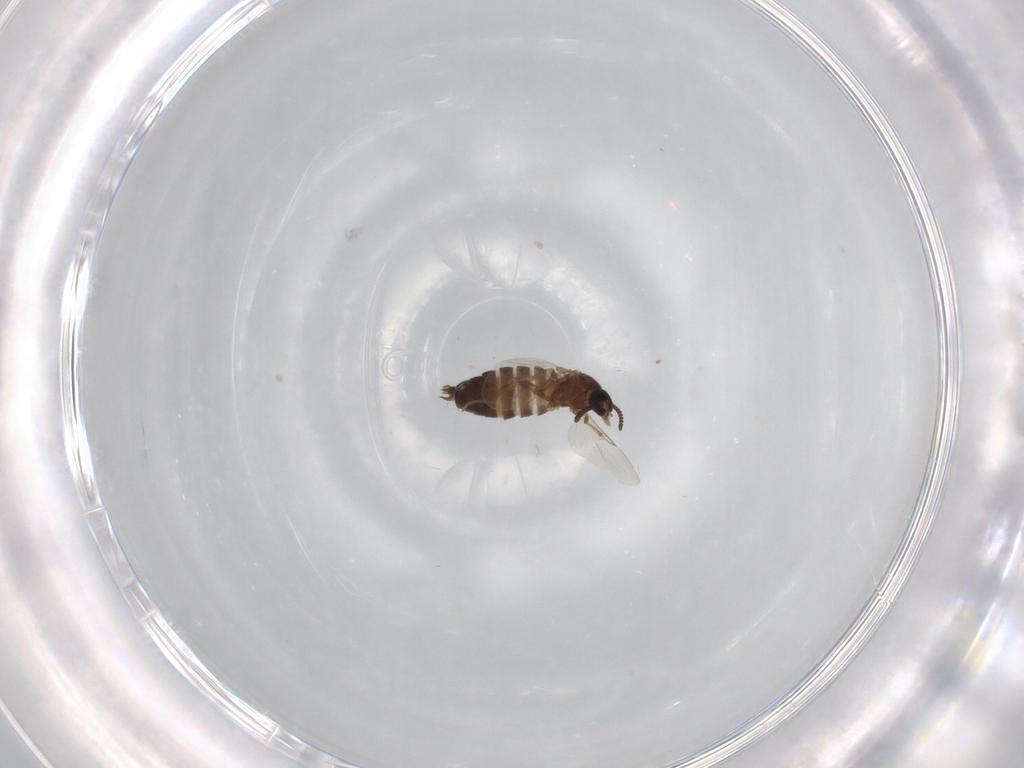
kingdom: Animalia
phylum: Arthropoda
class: Insecta
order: Diptera
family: Scatopsidae
